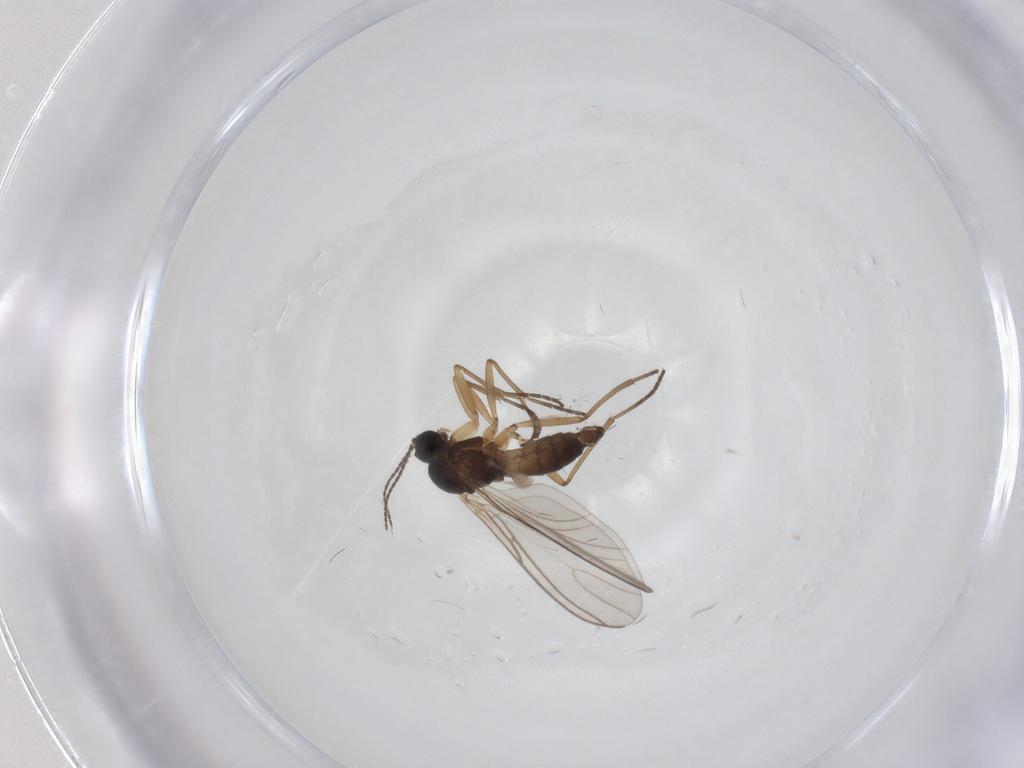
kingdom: Animalia
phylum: Arthropoda
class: Insecta
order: Diptera
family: Sciaridae
